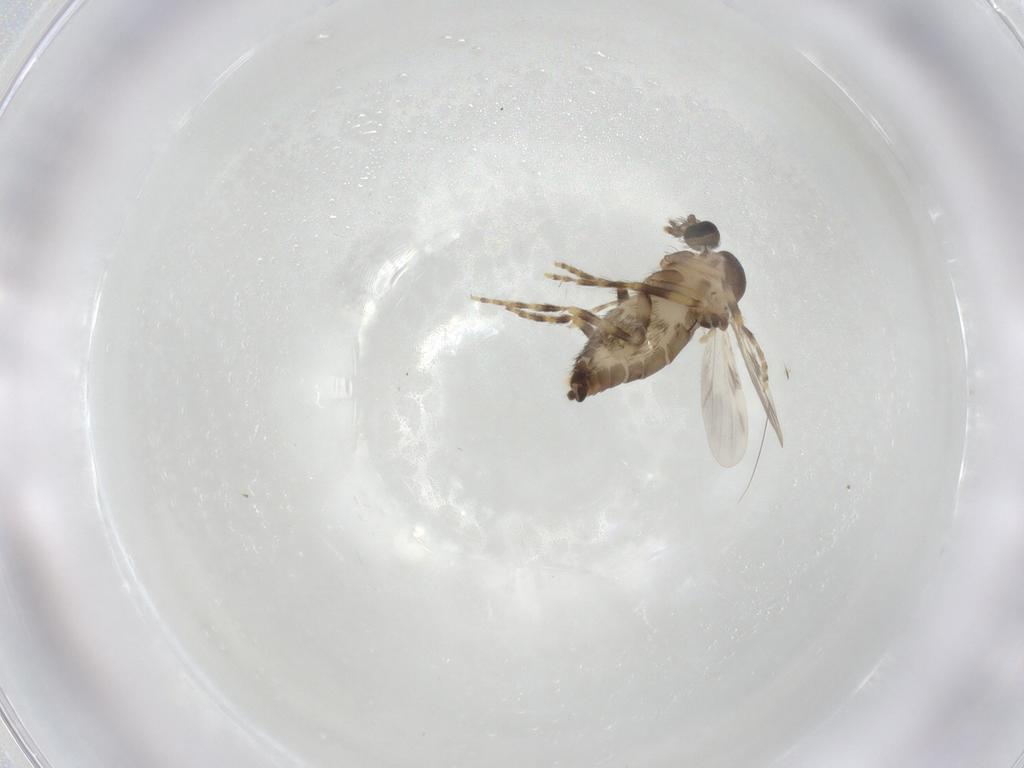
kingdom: Animalia
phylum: Arthropoda
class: Insecta
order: Diptera
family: Ceratopogonidae
